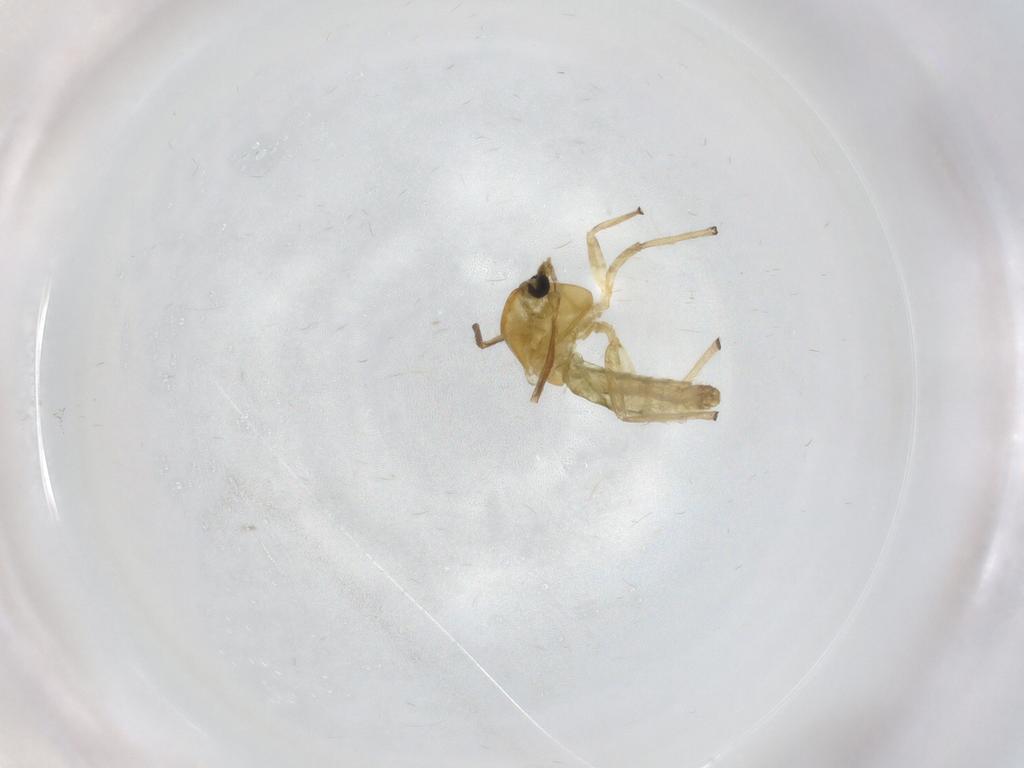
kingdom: Animalia
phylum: Arthropoda
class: Insecta
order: Diptera
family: Chironomidae
